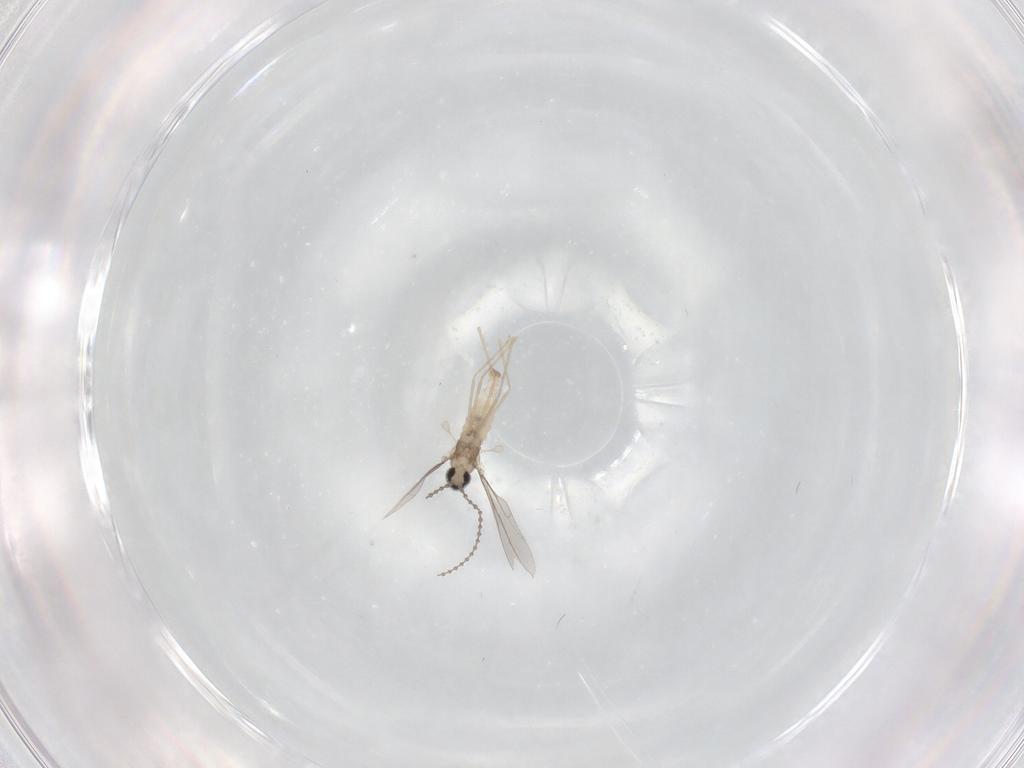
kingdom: Animalia
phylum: Arthropoda
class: Insecta
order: Diptera
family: Cecidomyiidae
